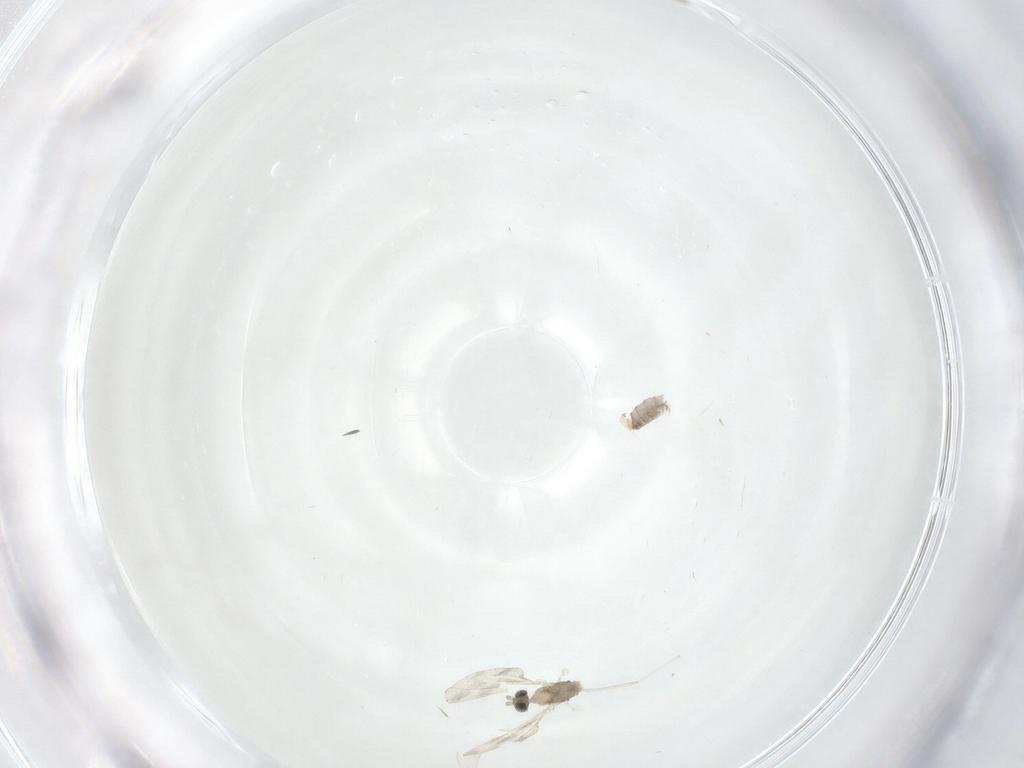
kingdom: Animalia
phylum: Arthropoda
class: Insecta
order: Diptera
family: Cecidomyiidae
